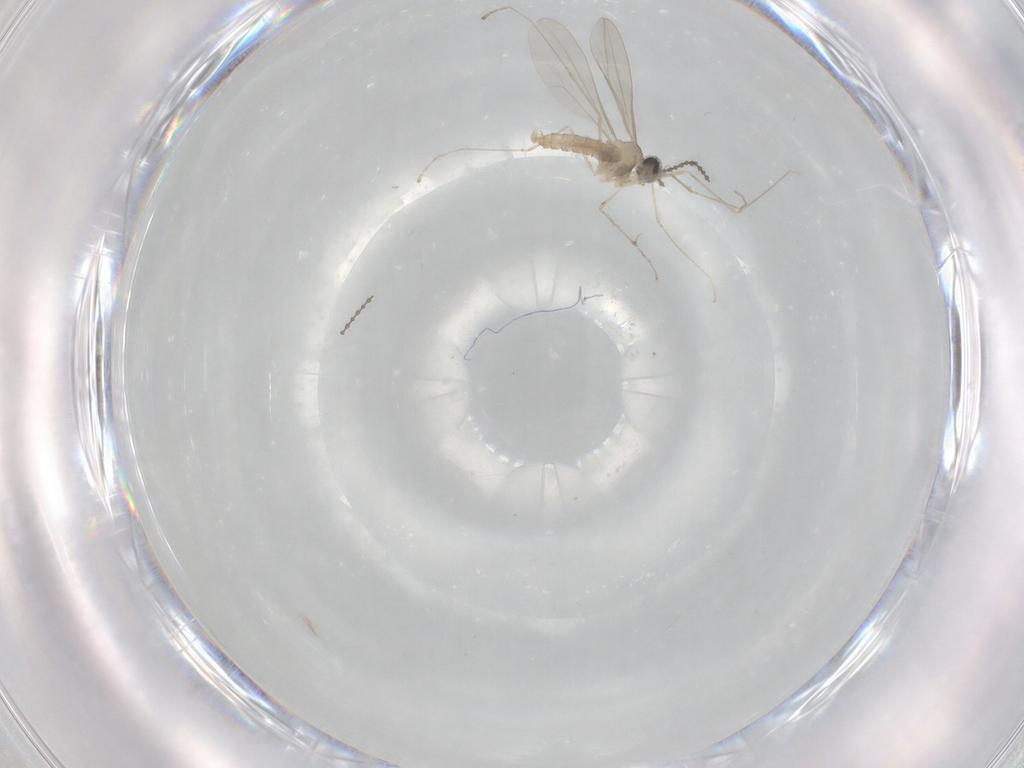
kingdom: Animalia
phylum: Arthropoda
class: Insecta
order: Diptera
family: Cecidomyiidae
